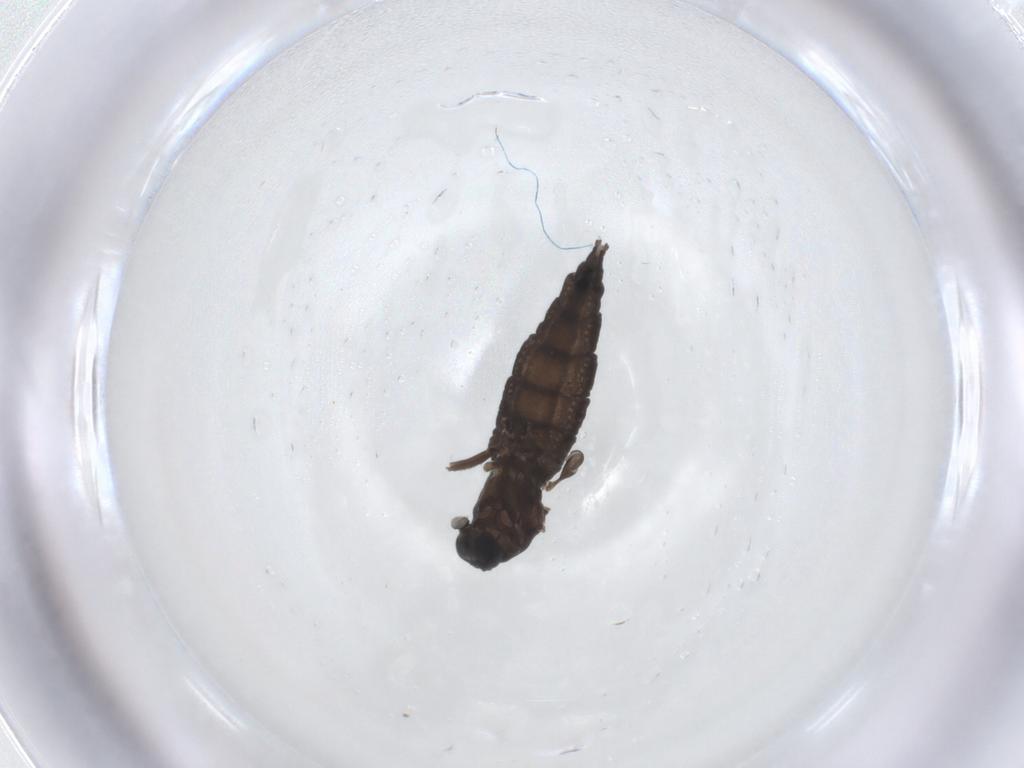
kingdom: Animalia
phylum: Arthropoda
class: Insecta
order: Diptera
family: Sciaridae
